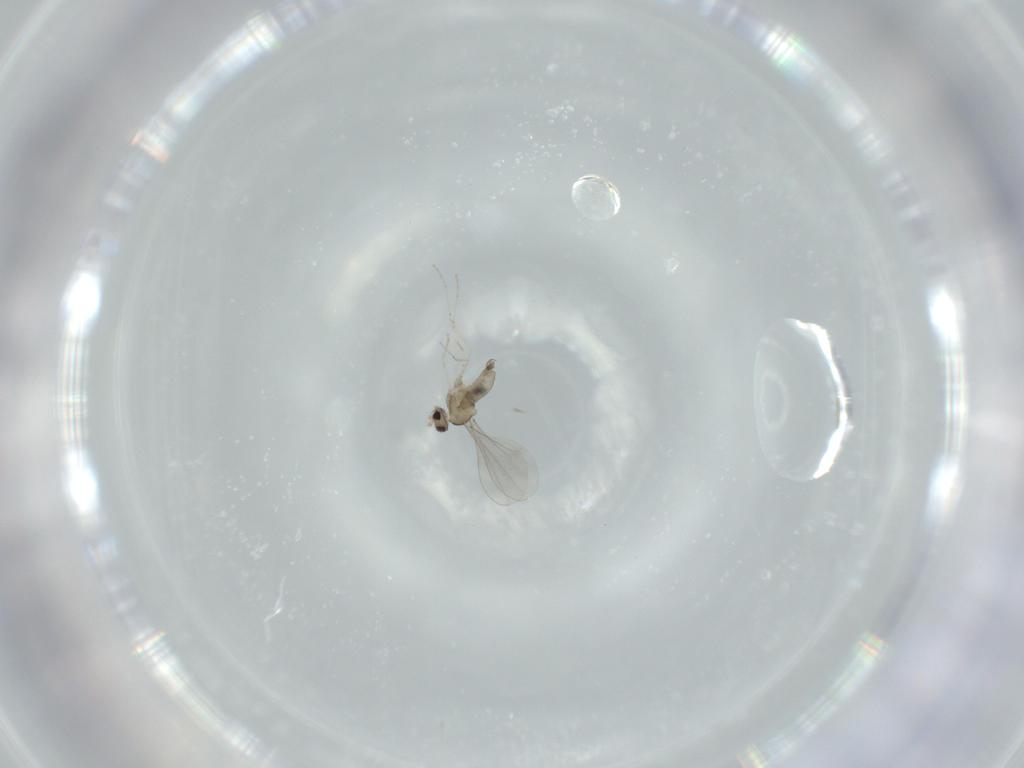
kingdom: Animalia
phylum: Arthropoda
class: Insecta
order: Diptera
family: Cecidomyiidae
